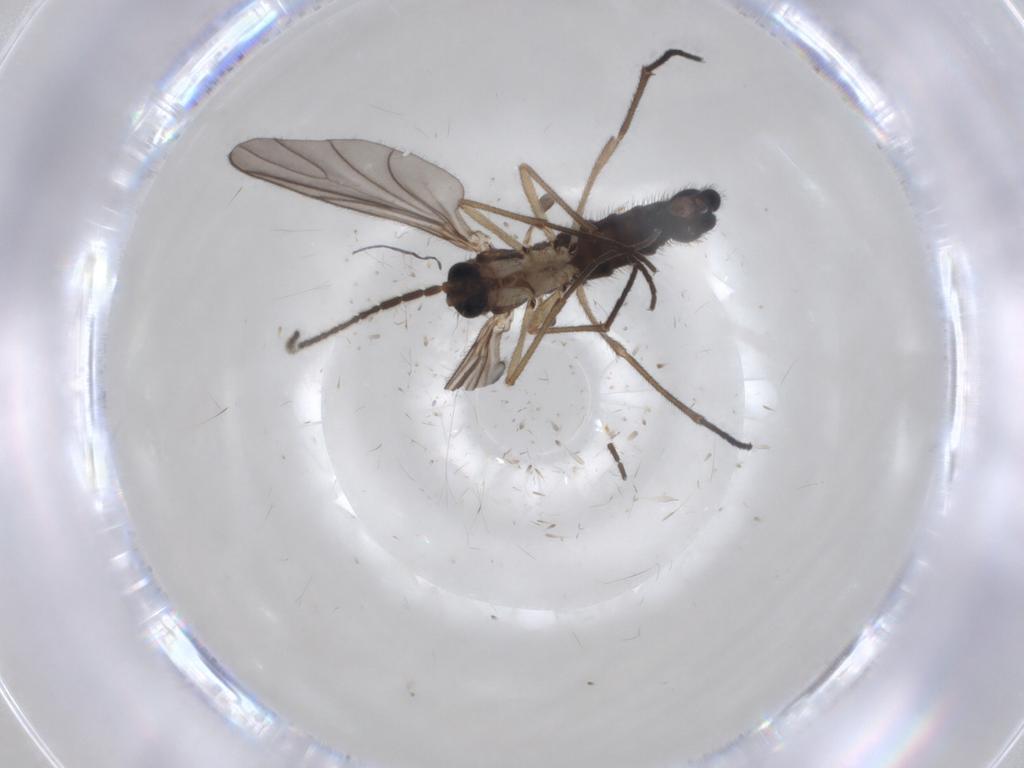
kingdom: Animalia
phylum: Arthropoda
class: Insecta
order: Diptera
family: Sciaridae
